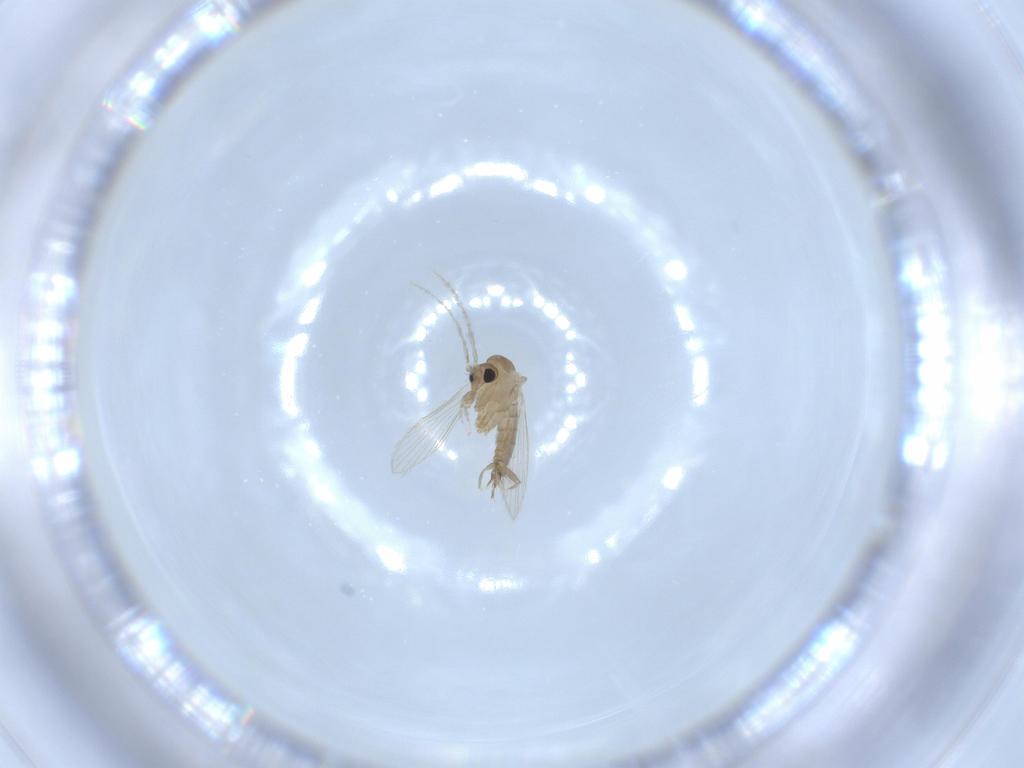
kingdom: Animalia
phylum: Arthropoda
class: Insecta
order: Diptera
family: Psychodidae
